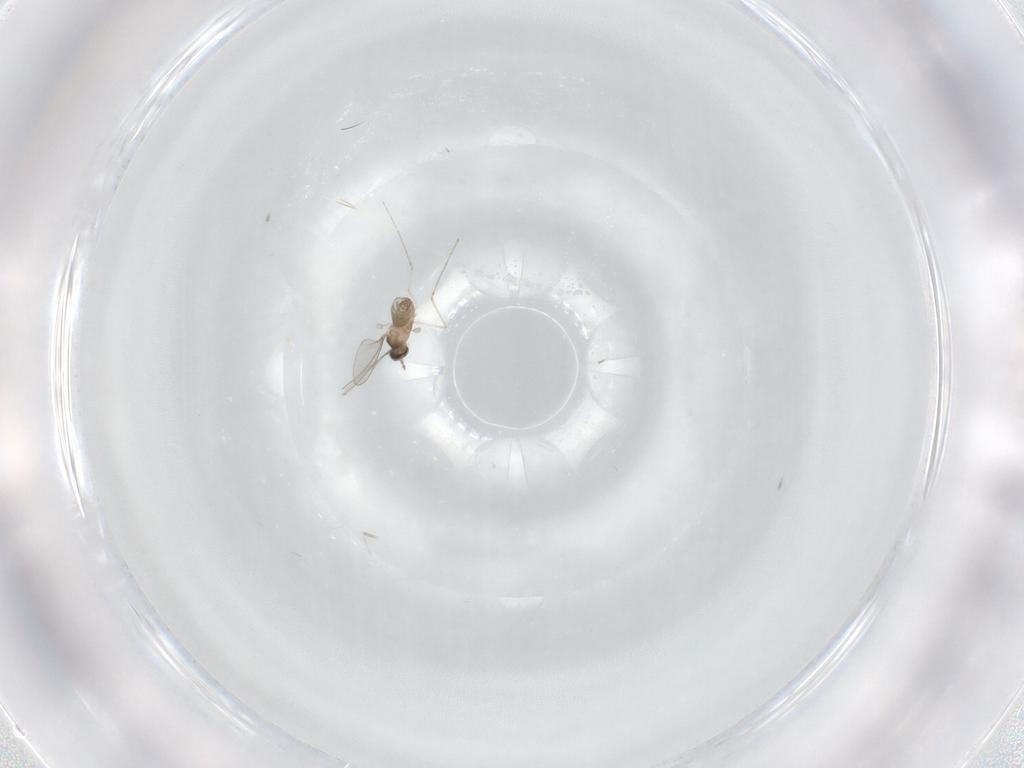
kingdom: Animalia
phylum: Arthropoda
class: Insecta
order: Diptera
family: Cecidomyiidae
